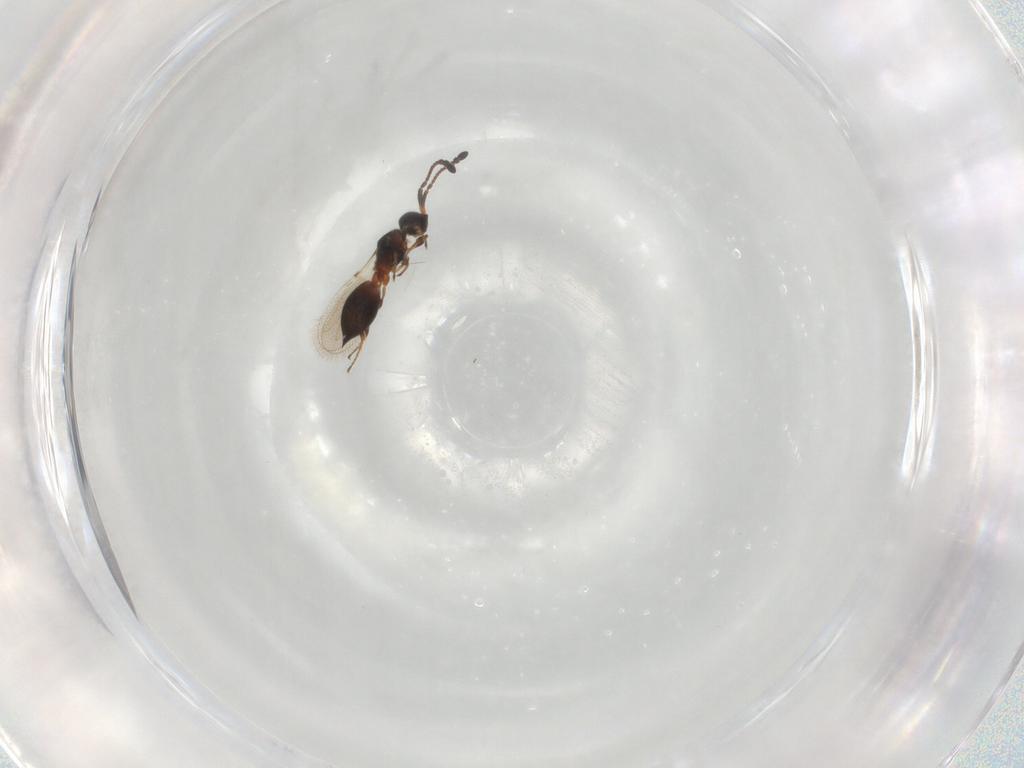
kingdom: Animalia
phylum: Arthropoda
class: Insecta
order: Hymenoptera
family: Diapriidae
